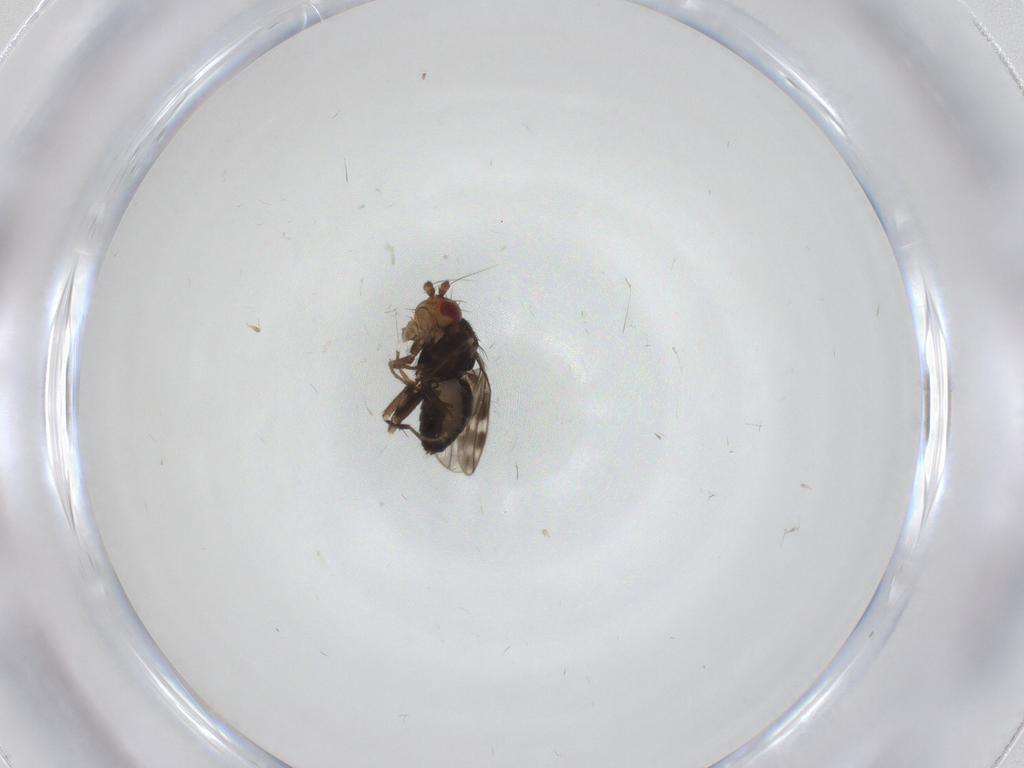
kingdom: Animalia
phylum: Arthropoda
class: Insecta
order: Diptera
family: Sphaeroceridae
